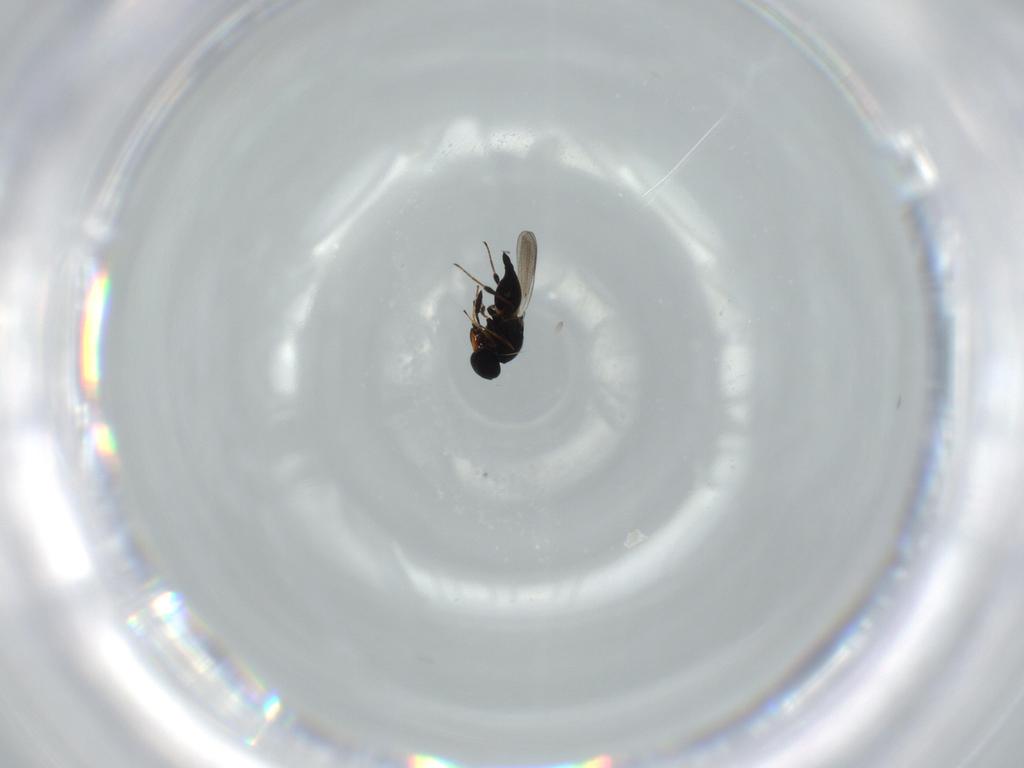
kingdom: Animalia
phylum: Arthropoda
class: Insecta
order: Hymenoptera
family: Platygastridae
